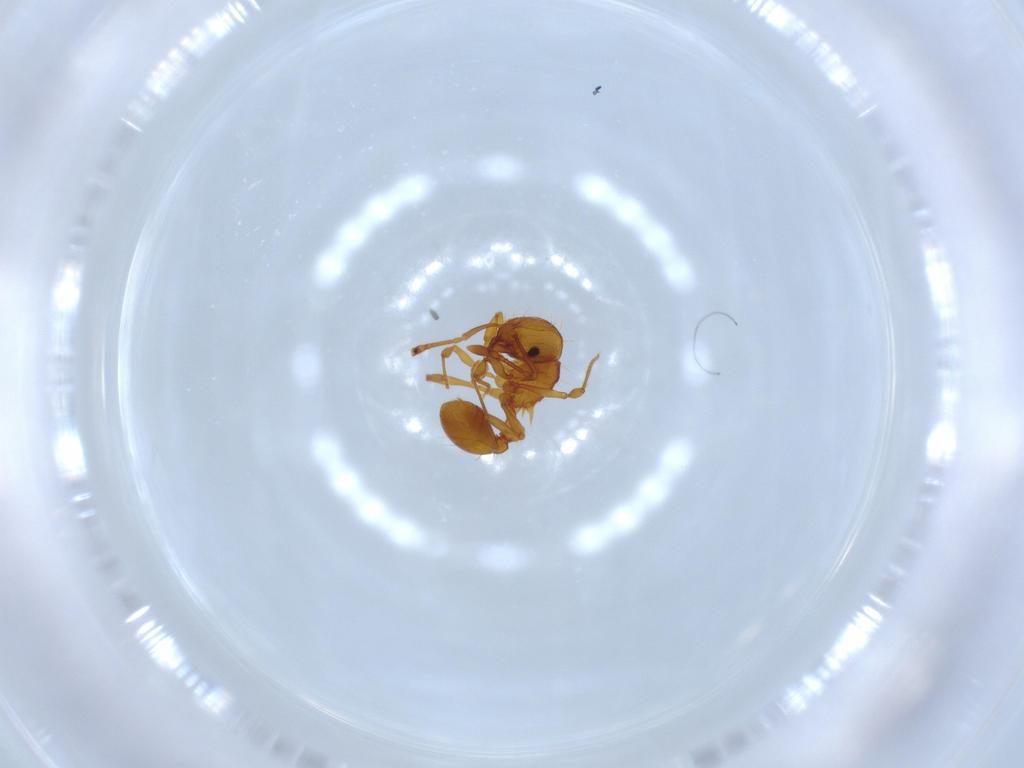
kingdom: Animalia
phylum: Arthropoda
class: Insecta
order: Hymenoptera
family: Formicidae
